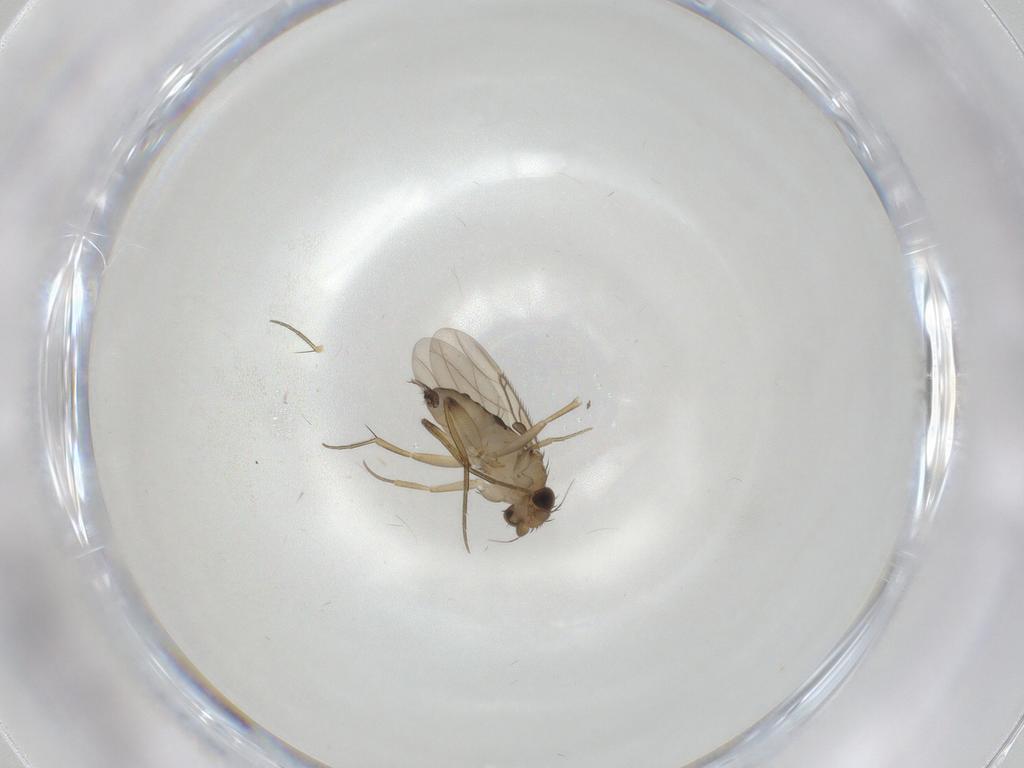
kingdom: Animalia
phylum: Arthropoda
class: Insecta
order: Diptera
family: Phoridae
